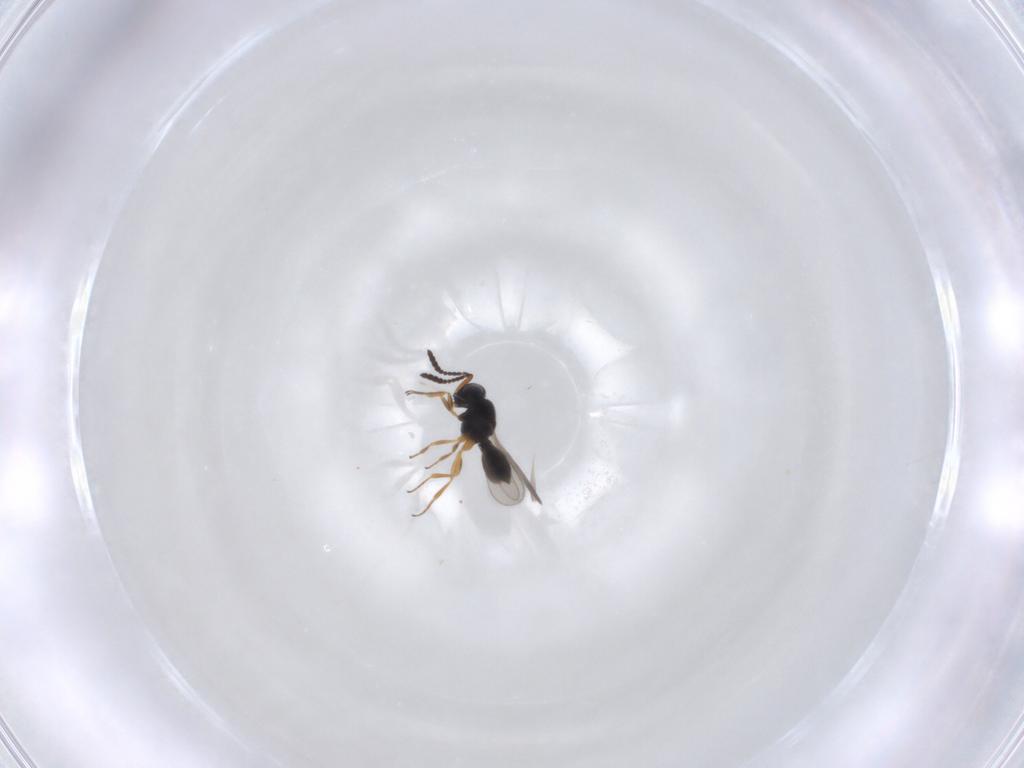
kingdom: Animalia
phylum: Arthropoda
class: Insecta
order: Hymenoptera
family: Scelionidae
